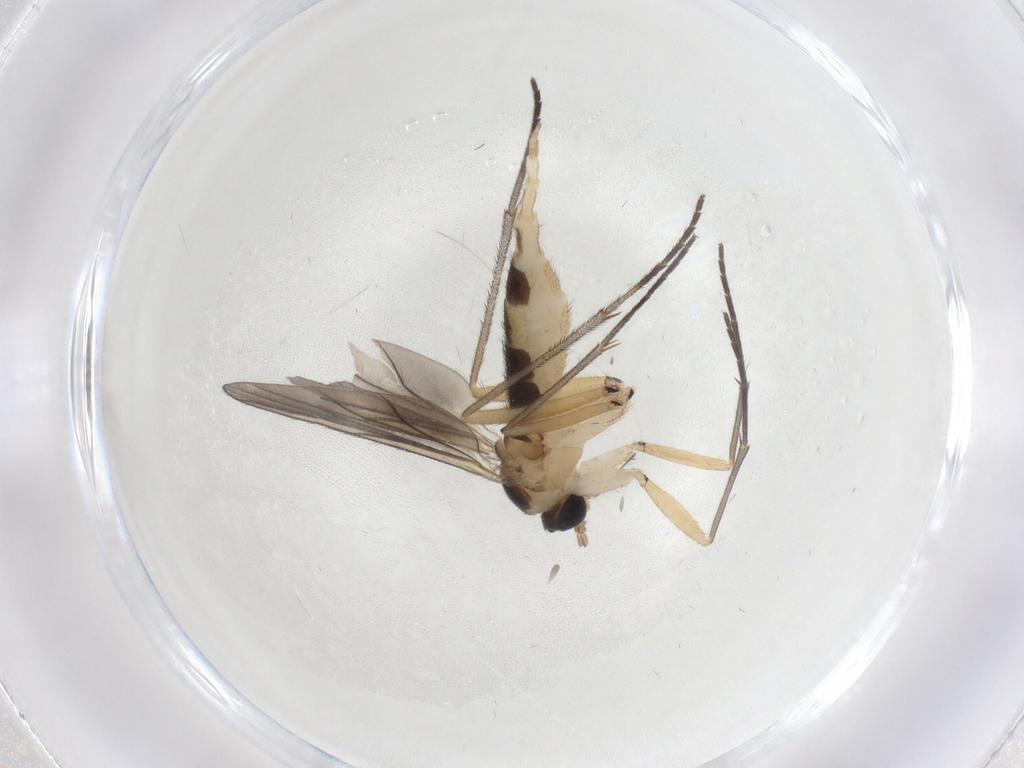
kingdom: Animalia
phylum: Arthropoda
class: Insecta
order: Diptera
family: Sciaridae
